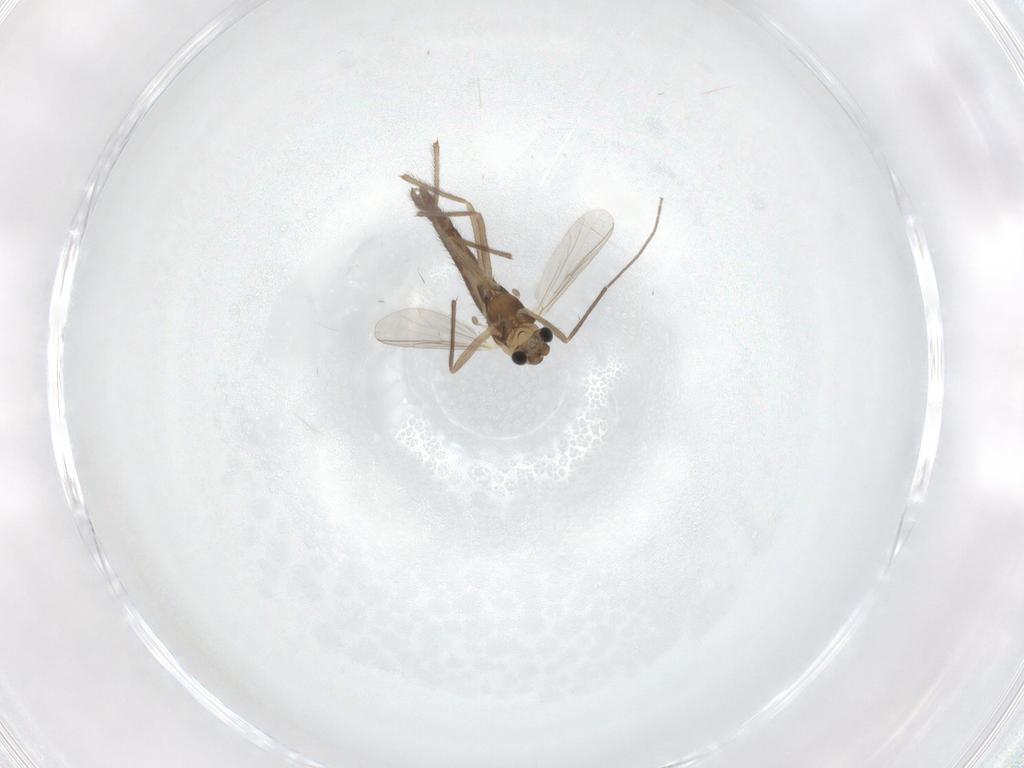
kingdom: Animalia
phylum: Arthropoda
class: Insecta
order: Diptera
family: Chironomidae
